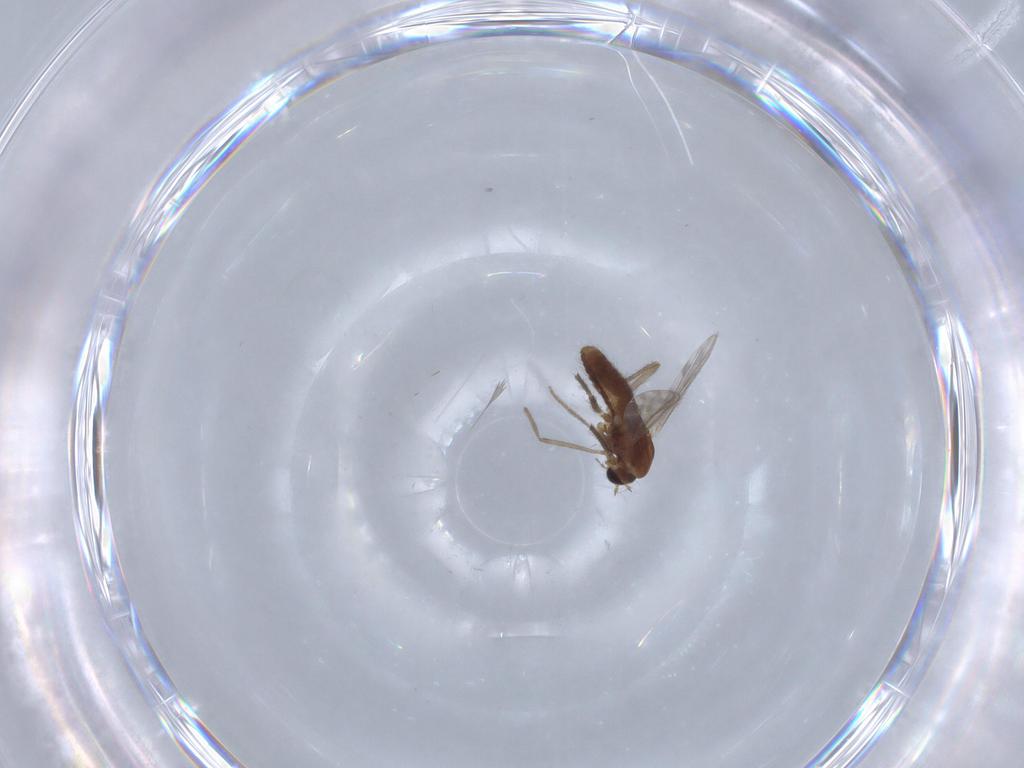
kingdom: Animalia
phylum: Arthropoda
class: Insecta
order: Diptera
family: Chironomidae
